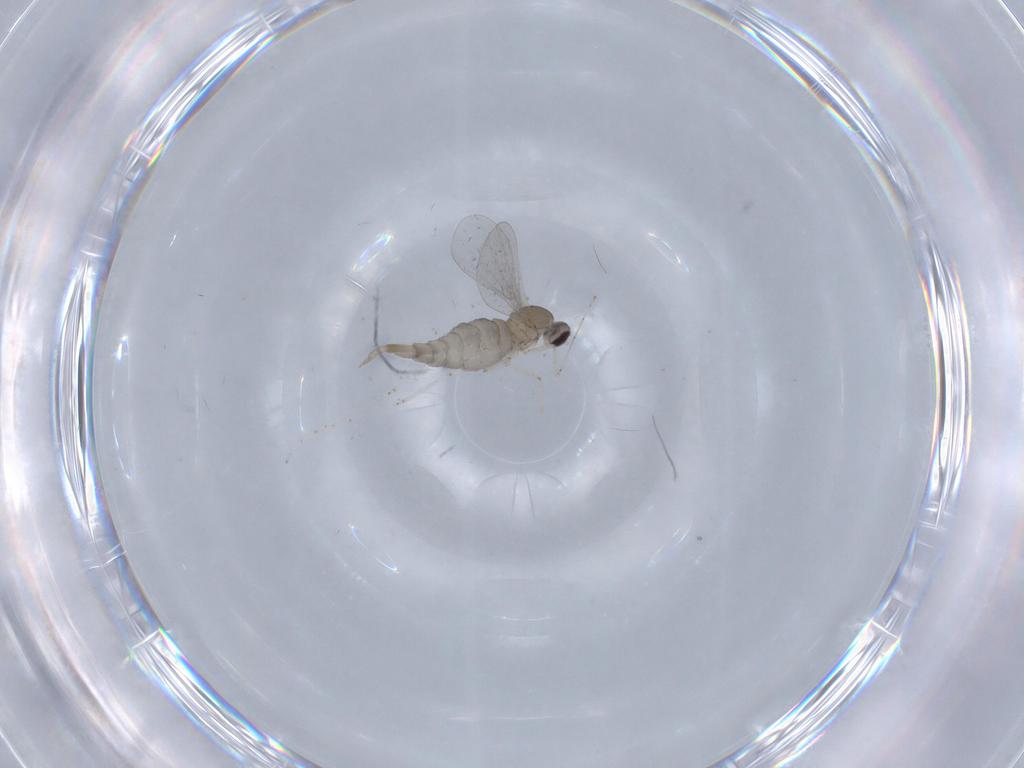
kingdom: Animalia
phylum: Arthropoda
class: Insecta
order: Diptera
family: Cecidomyiidae
